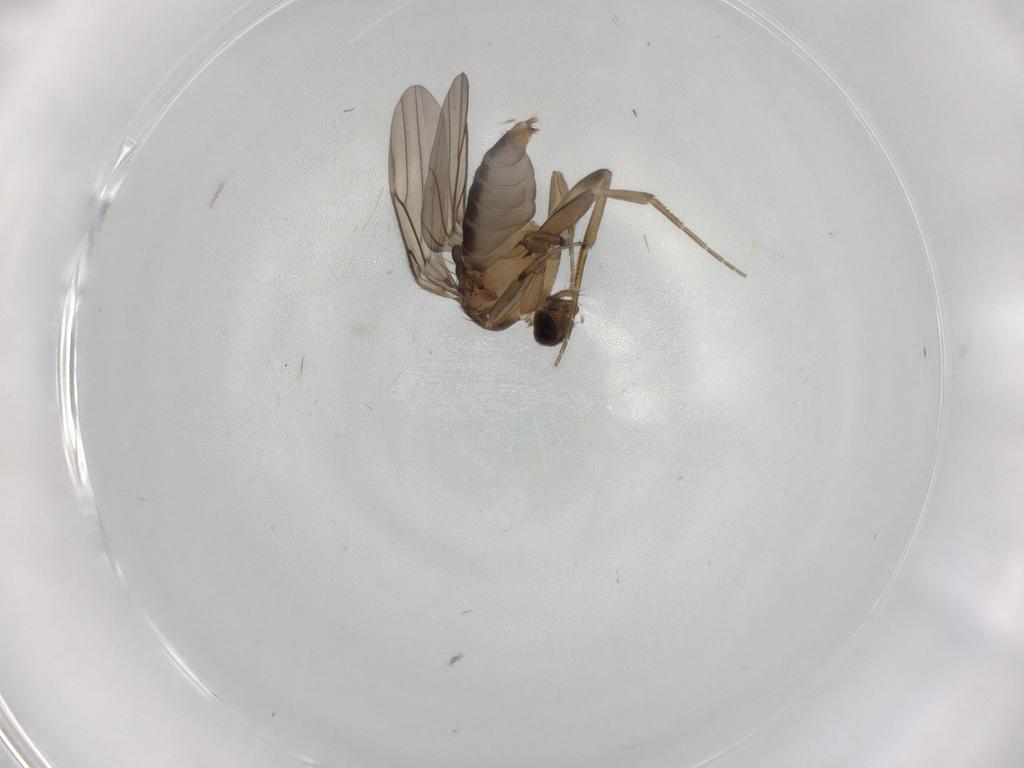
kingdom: Animalia
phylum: Arthropoda
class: Insecta
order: Diptera
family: Phoridae
